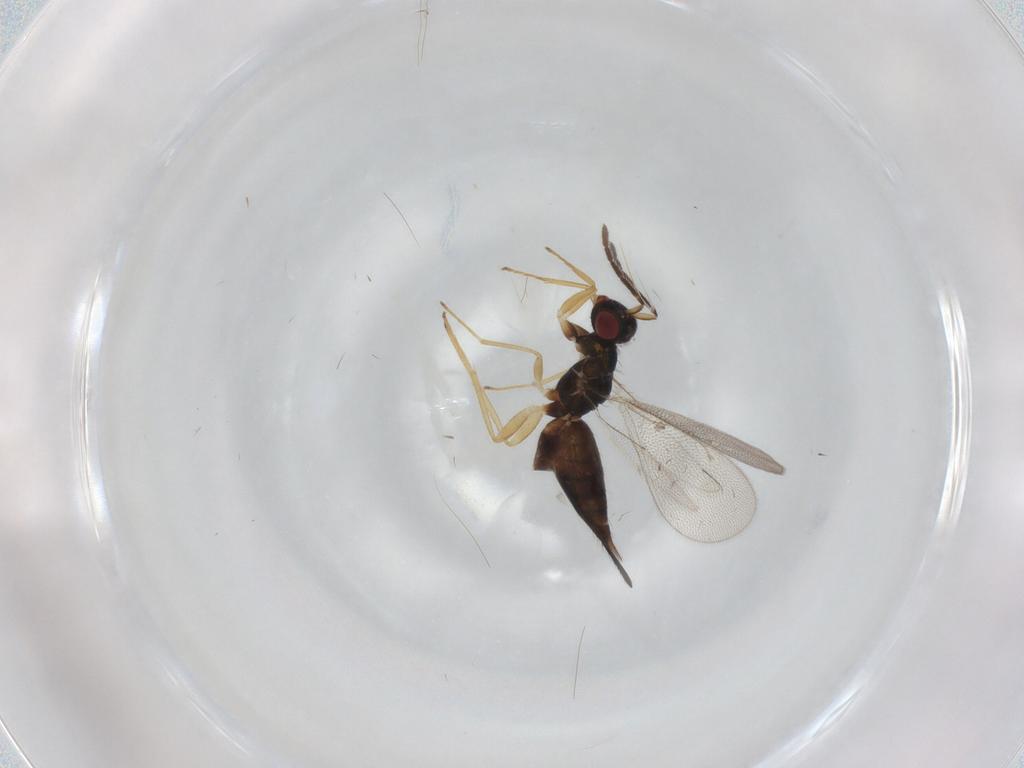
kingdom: Animalia
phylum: Arthropoda
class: Insecta
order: Hymenoptera
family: Eulophidae
